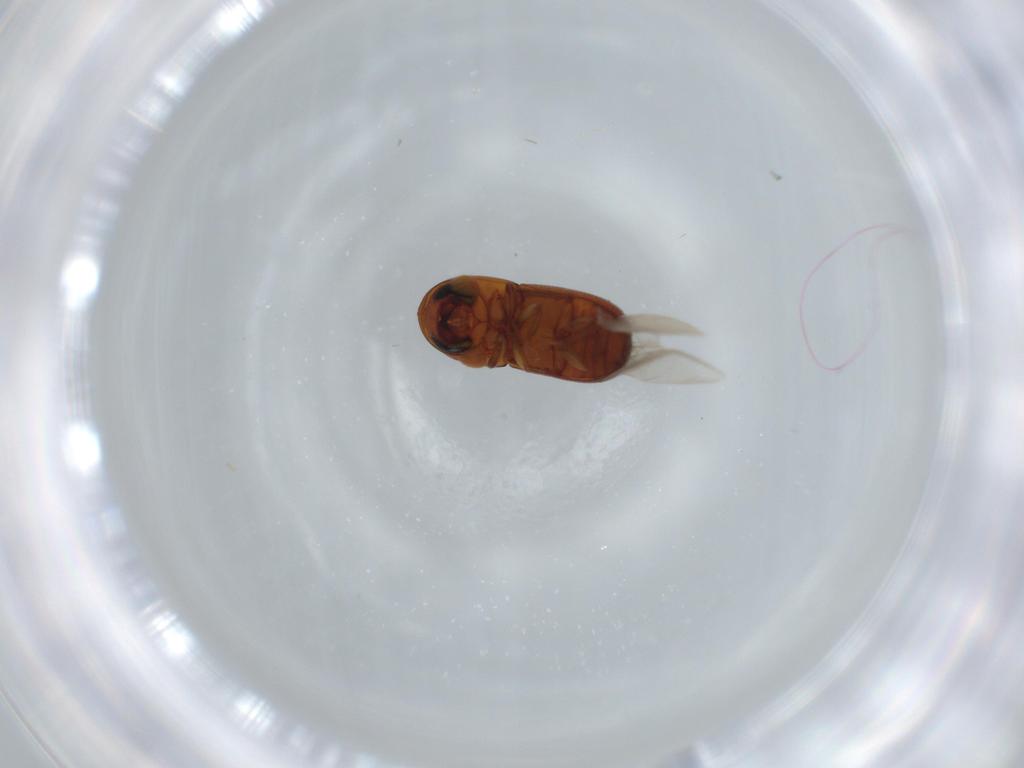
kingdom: Animalia
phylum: Arthropoda
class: Insecta
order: Coleoptera
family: Curculionidae
